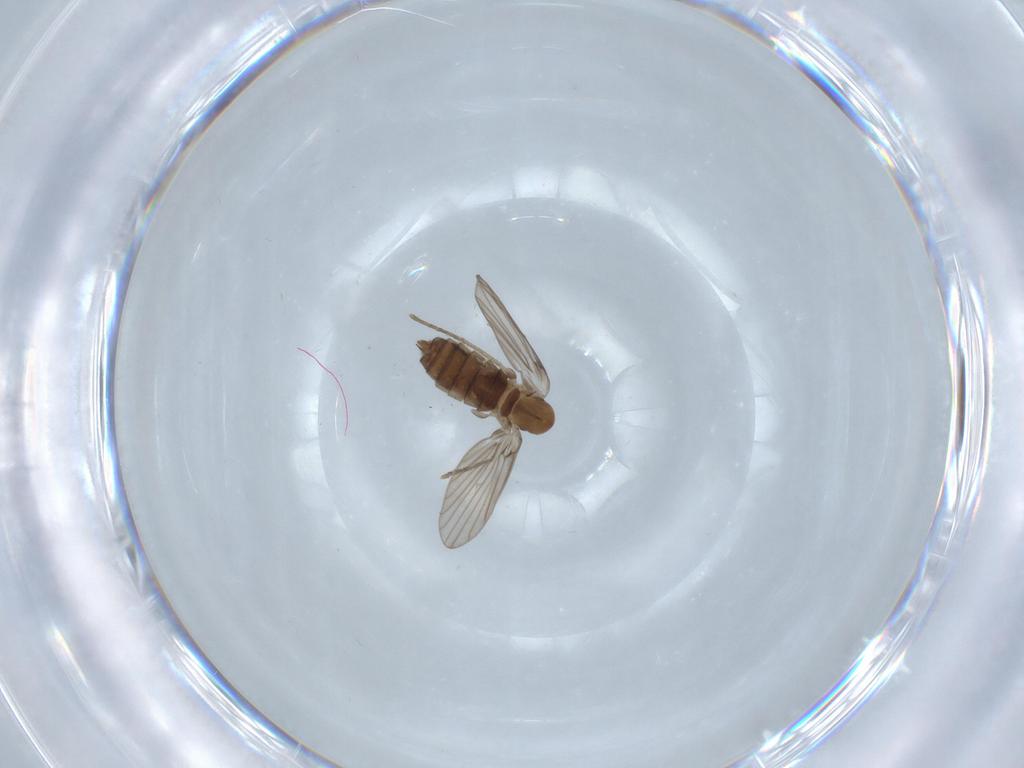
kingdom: Animalia
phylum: Arthropoda
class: Insecta
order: Diptera
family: Psychodidae
